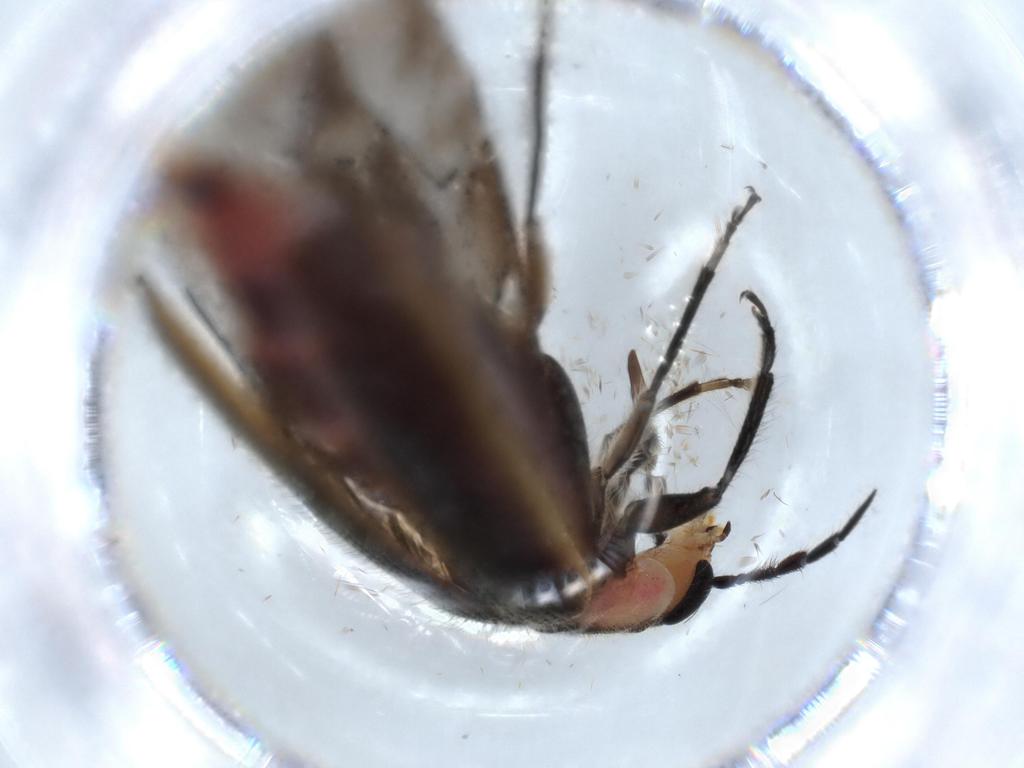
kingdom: Animalia
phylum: Arthropoda
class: Insecta
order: Coleoptera
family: Cleridae
